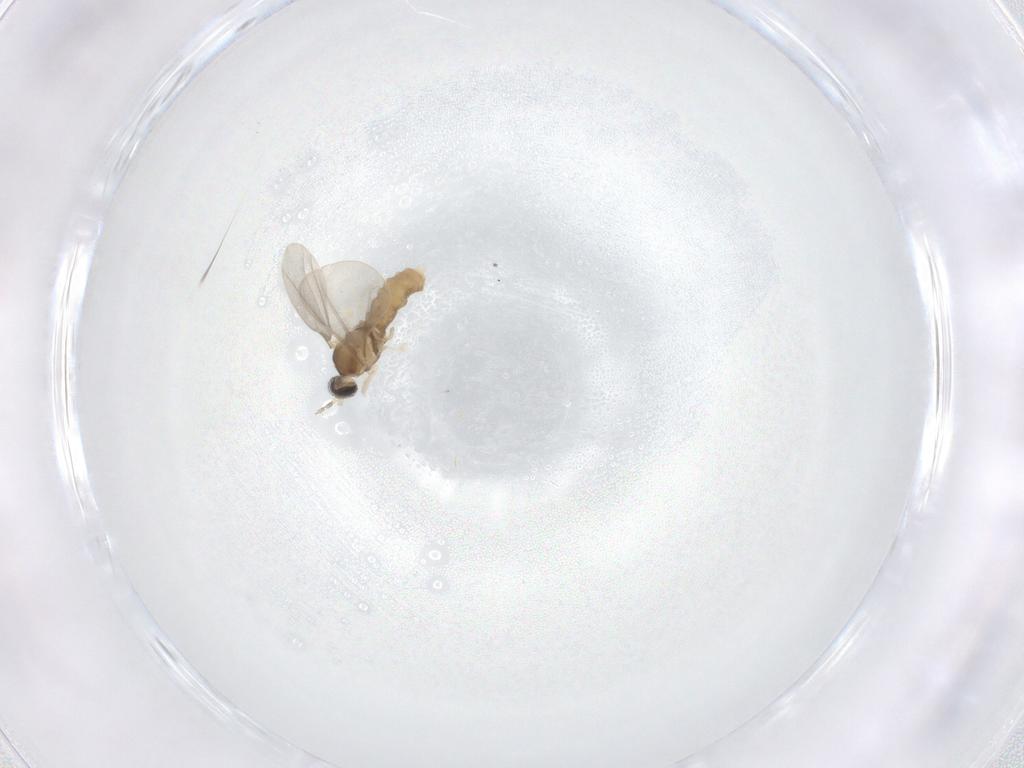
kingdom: Animalia
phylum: Arthropoda
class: Insecta
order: Diptera
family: Cecidomyiidae
